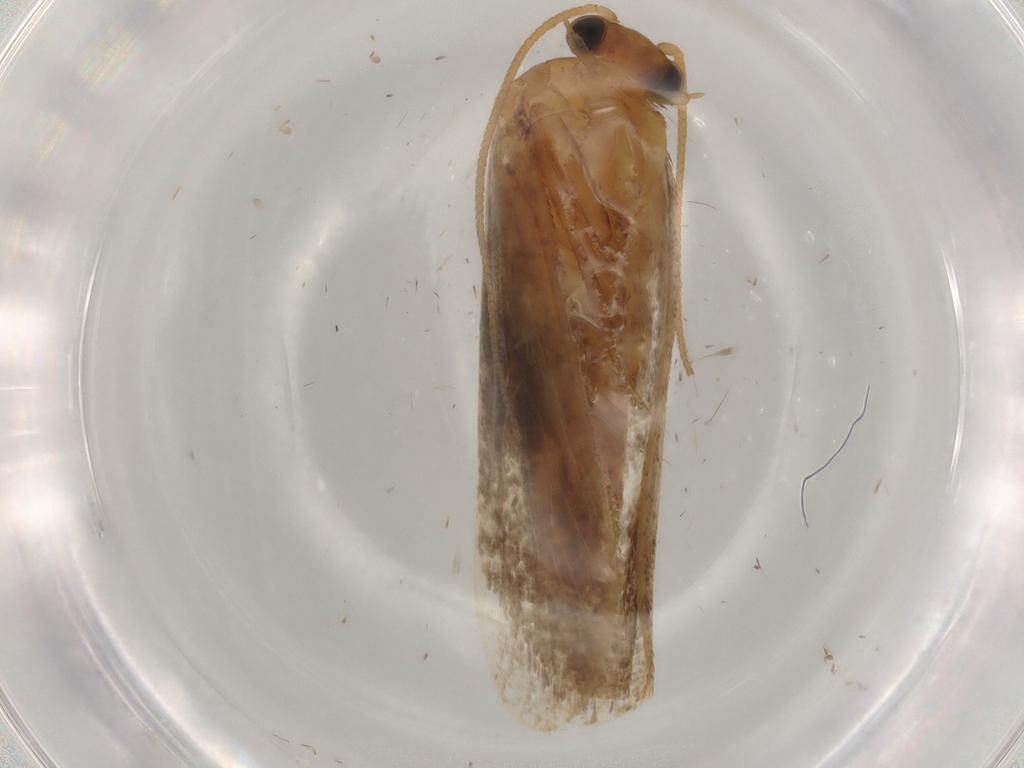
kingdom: Animalia
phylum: Arthropoda
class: Insecta
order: Lepidoptera
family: Nepticulidae
